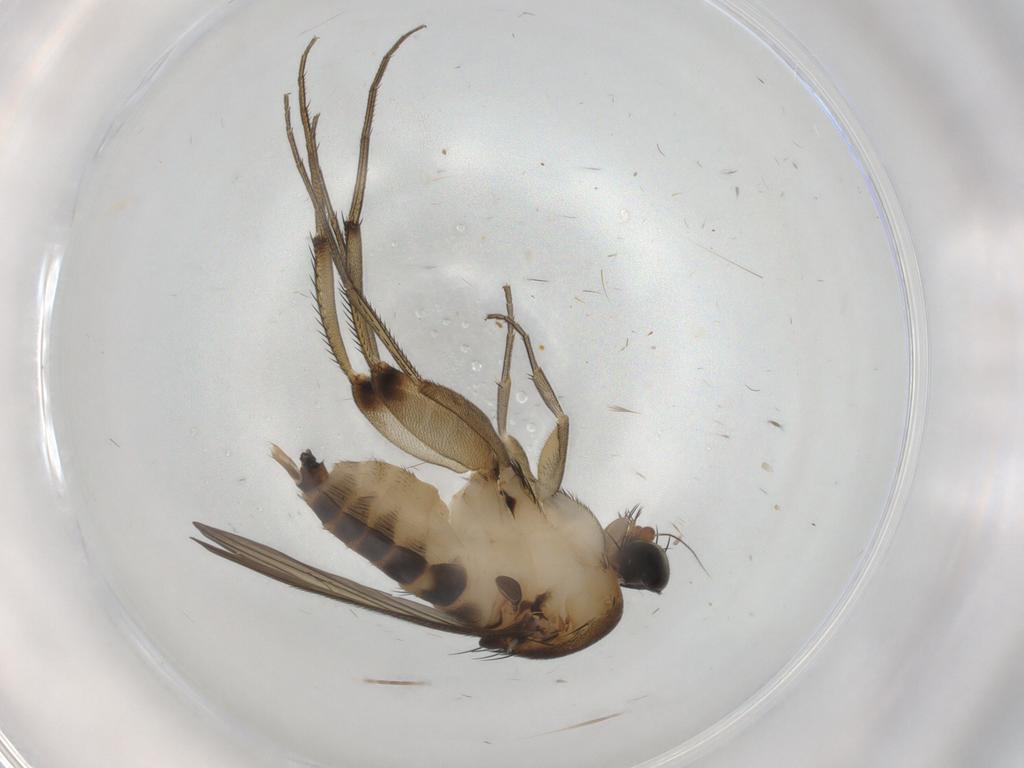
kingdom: Animalia
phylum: Arthropoda
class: Insecta
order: Diptera
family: Phoridae
